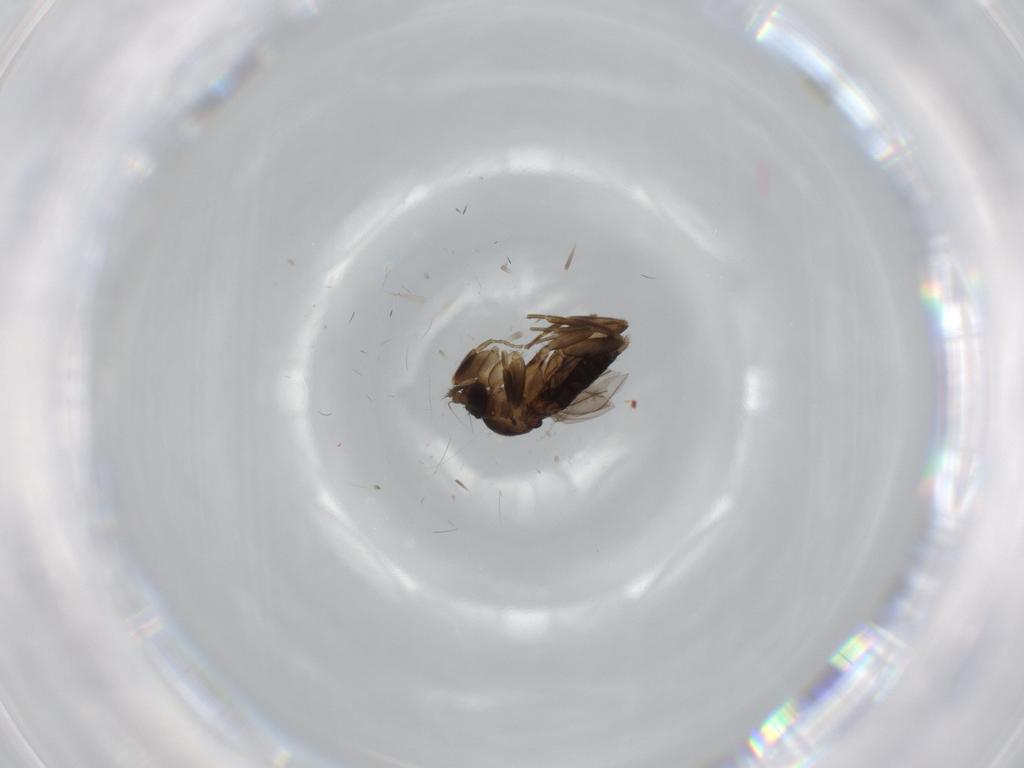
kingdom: Animalia
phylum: Arthropoda
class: Insecta
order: Diptera
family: Phoridae
